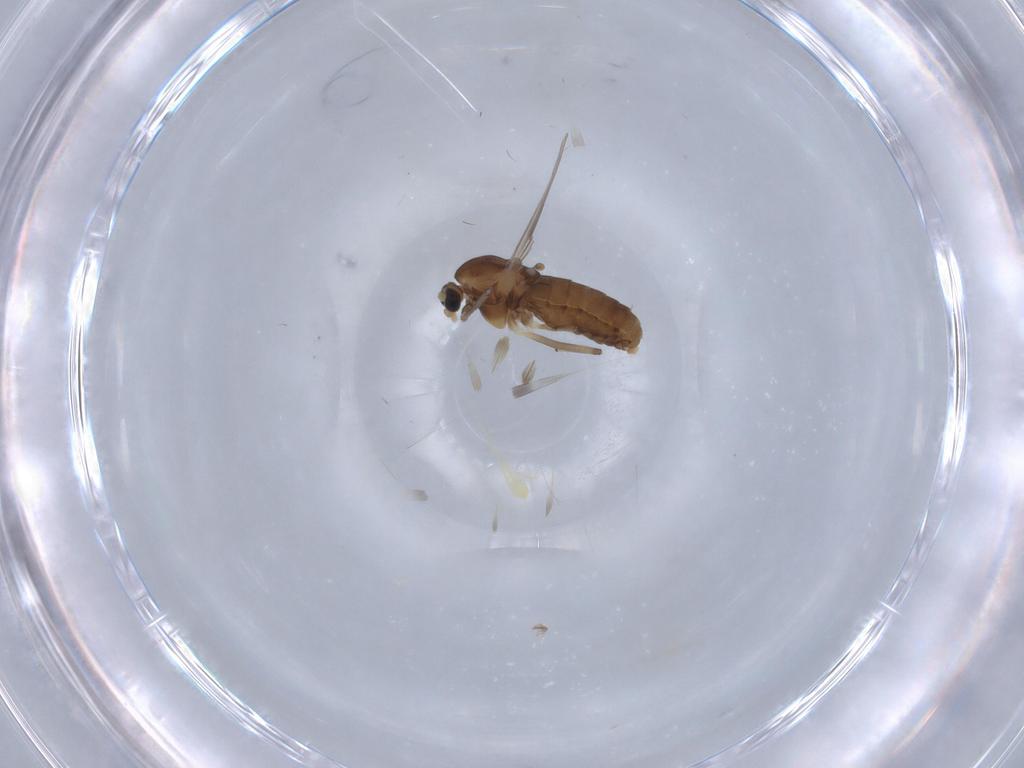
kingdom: Animalia
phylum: Arthropoda
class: Insecta
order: Diptera
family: Chironomidae
